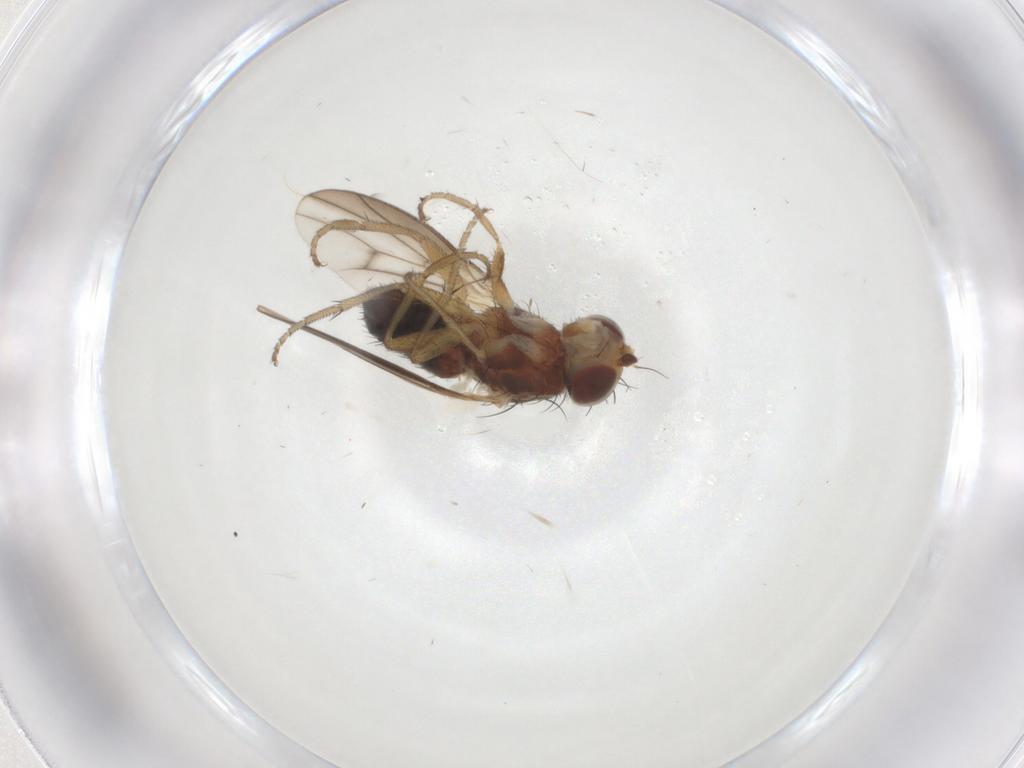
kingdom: Animalia
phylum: Arthropoda
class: Insecta
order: Diptera
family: Heleomyzidae
